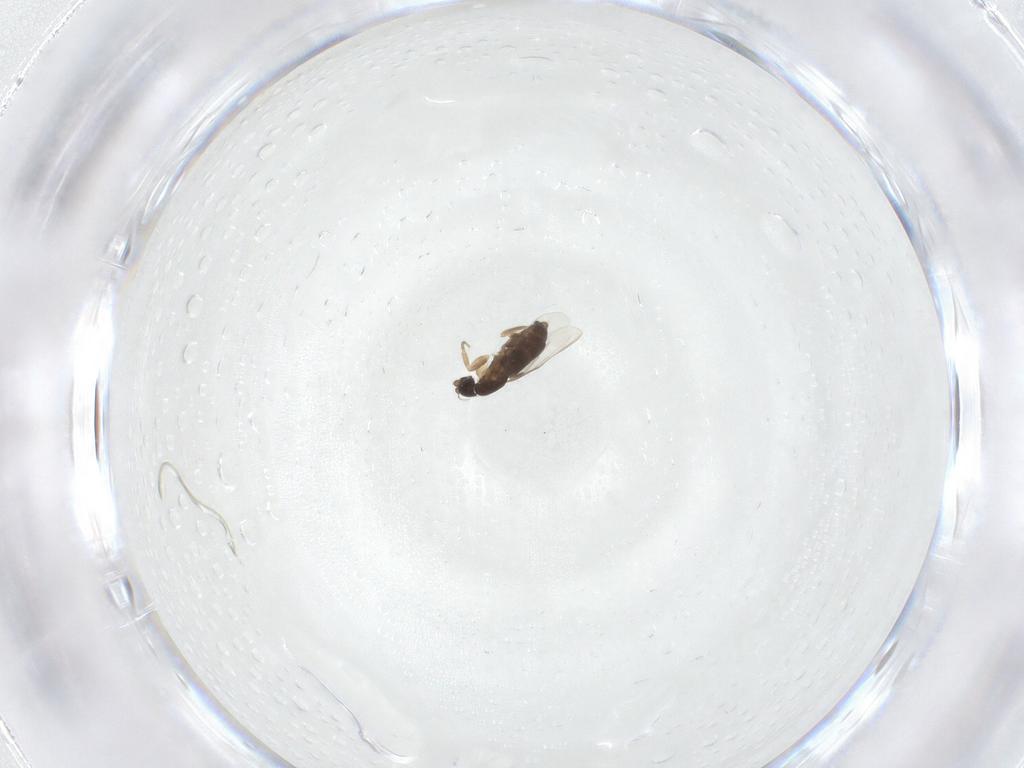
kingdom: Animalia
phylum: Arthropoda
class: Insecta
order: Diptera
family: Phoridae
